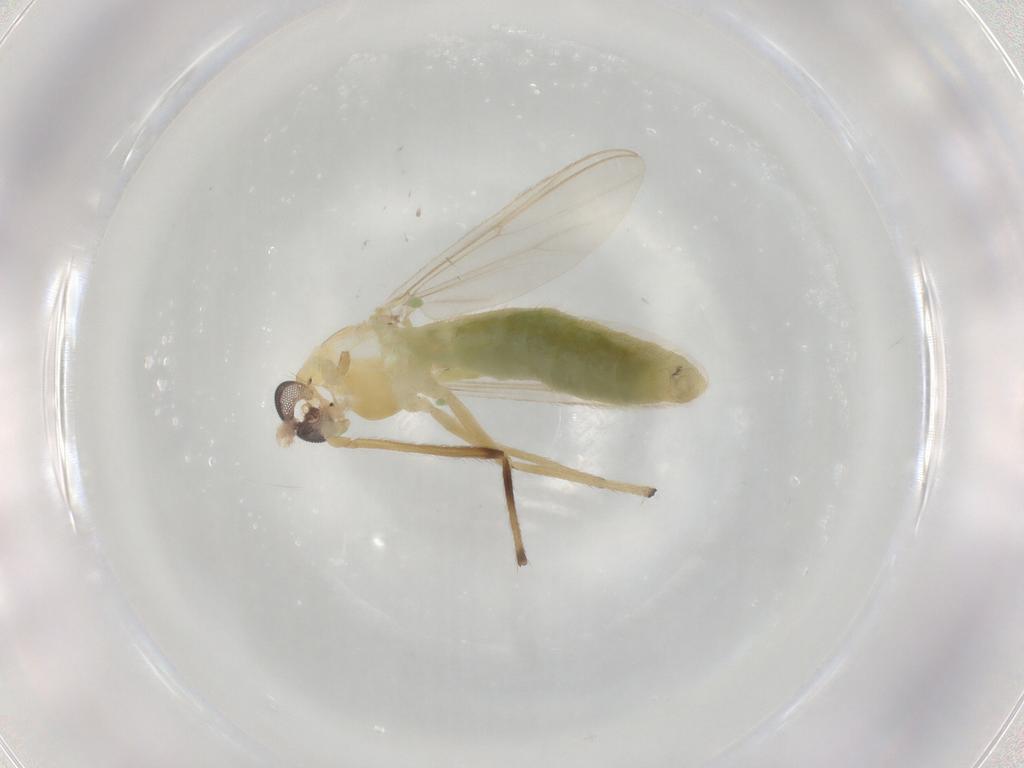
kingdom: Animalia
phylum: Arthropoda
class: Insecta
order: Diptera
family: Chironomidae
